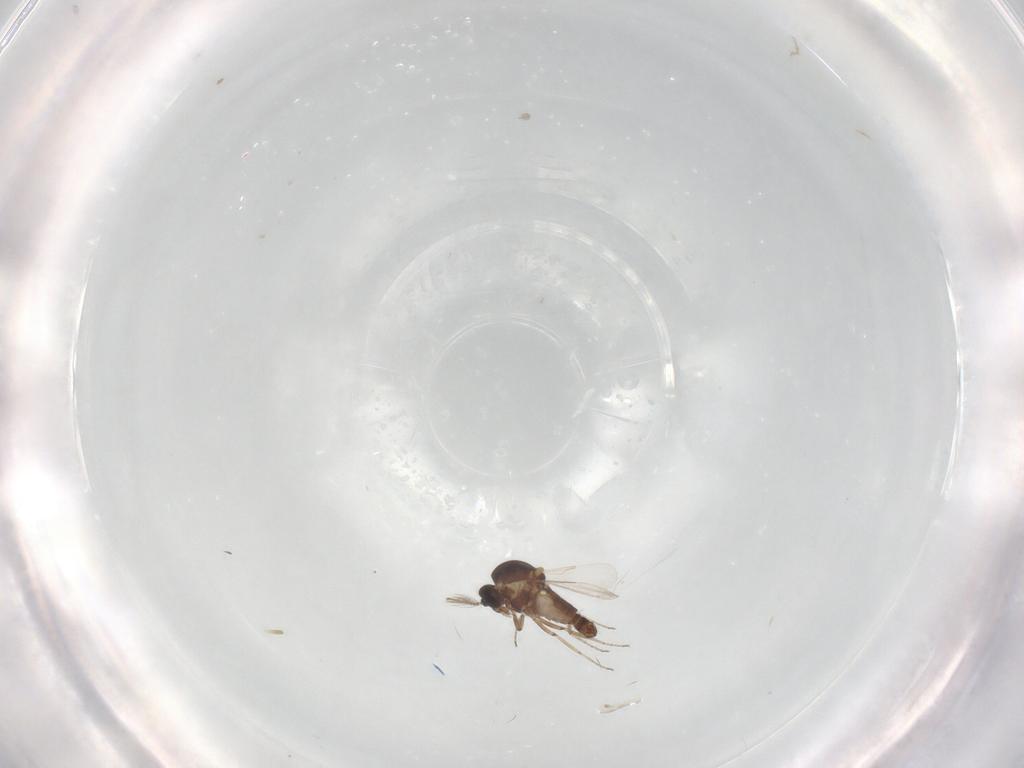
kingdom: Animalia
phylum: Arthropoda
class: Insecta
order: Diptera
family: Ceratopogonidae
